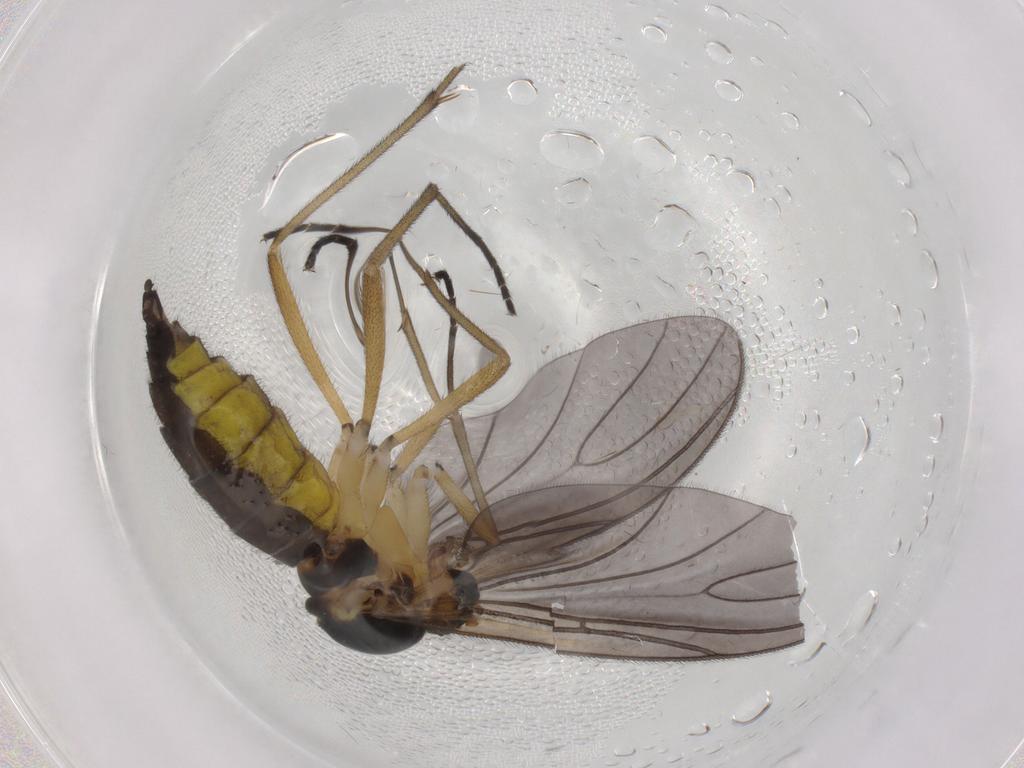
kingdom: Animalia
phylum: Arthropoda
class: Insecta
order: Diptera
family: Sciaridae
